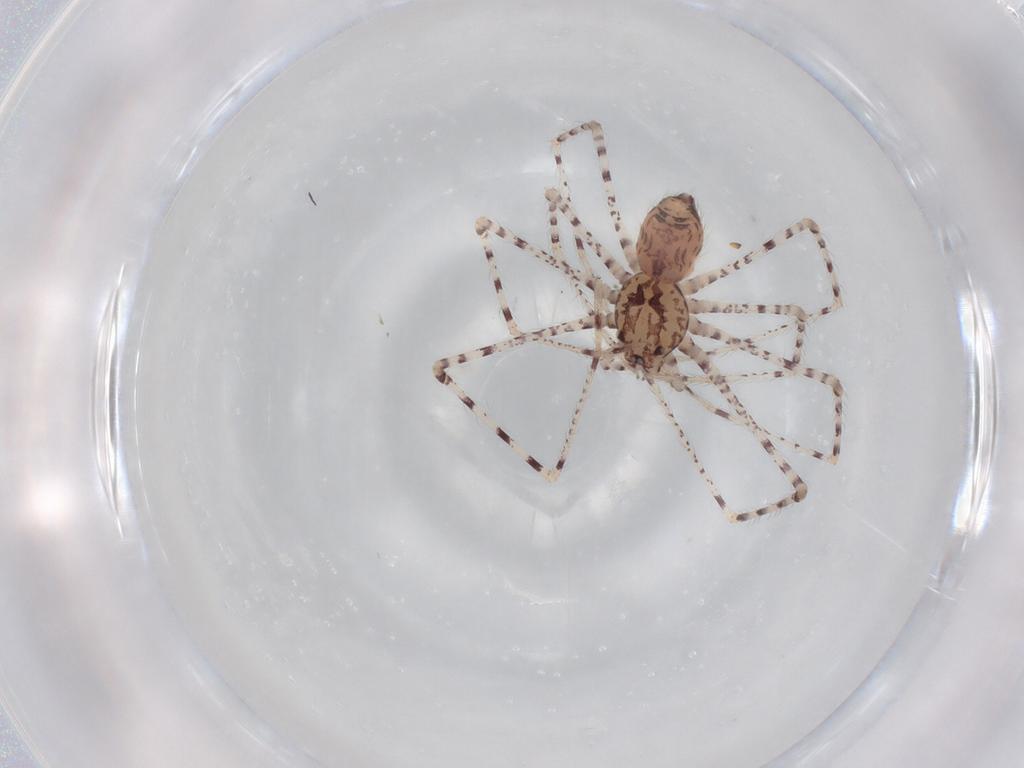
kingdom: Animalia
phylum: Arthropoda
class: Arachnida
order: Araneae
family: Scytodidae
